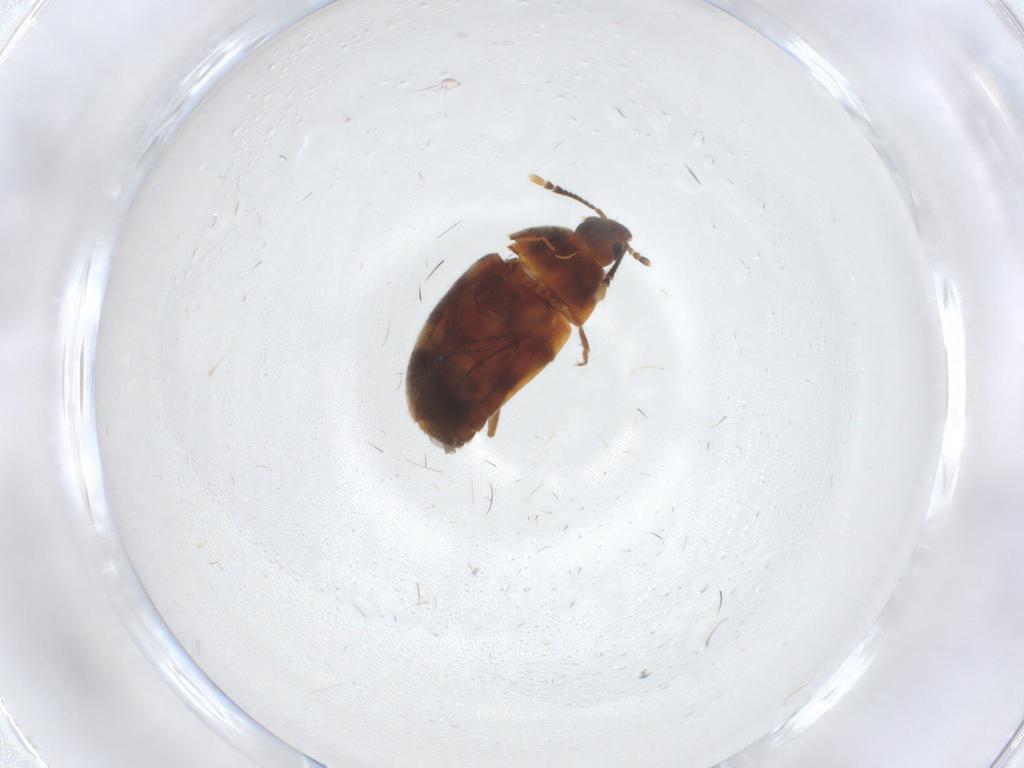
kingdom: Animalia
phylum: Arthropoda
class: Insecta
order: Coleoptera
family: Mycetophagidae
